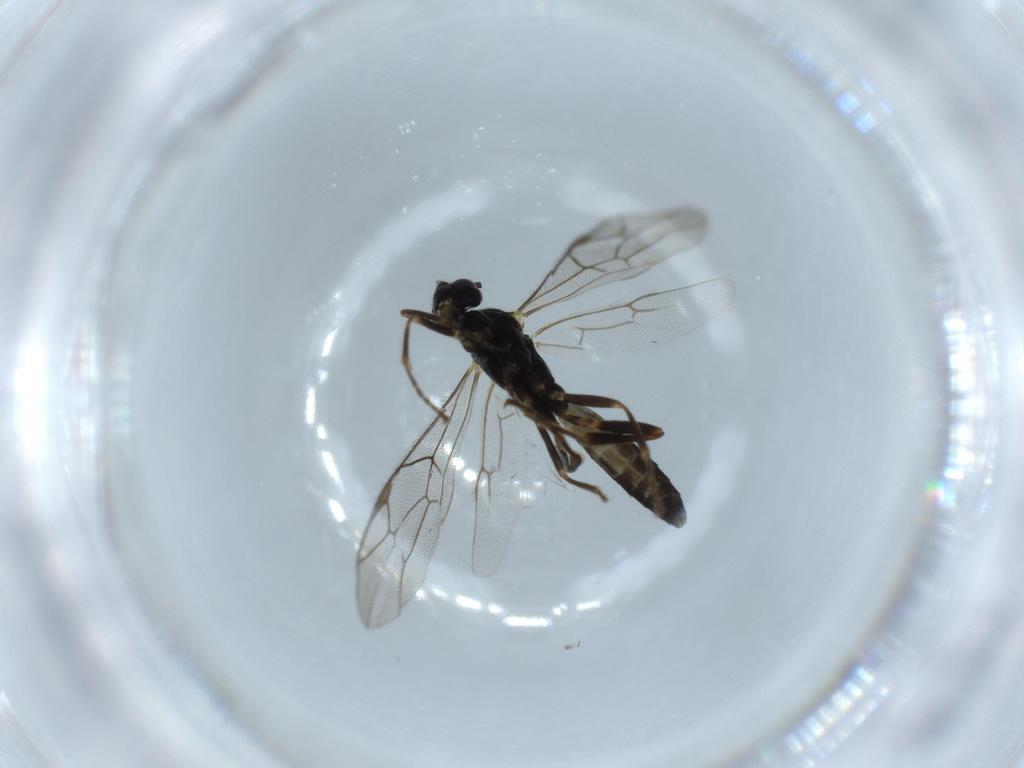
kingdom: Animalia
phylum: Arthropoda
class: Insecta
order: Hymenoptera
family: Ichneumonidae
